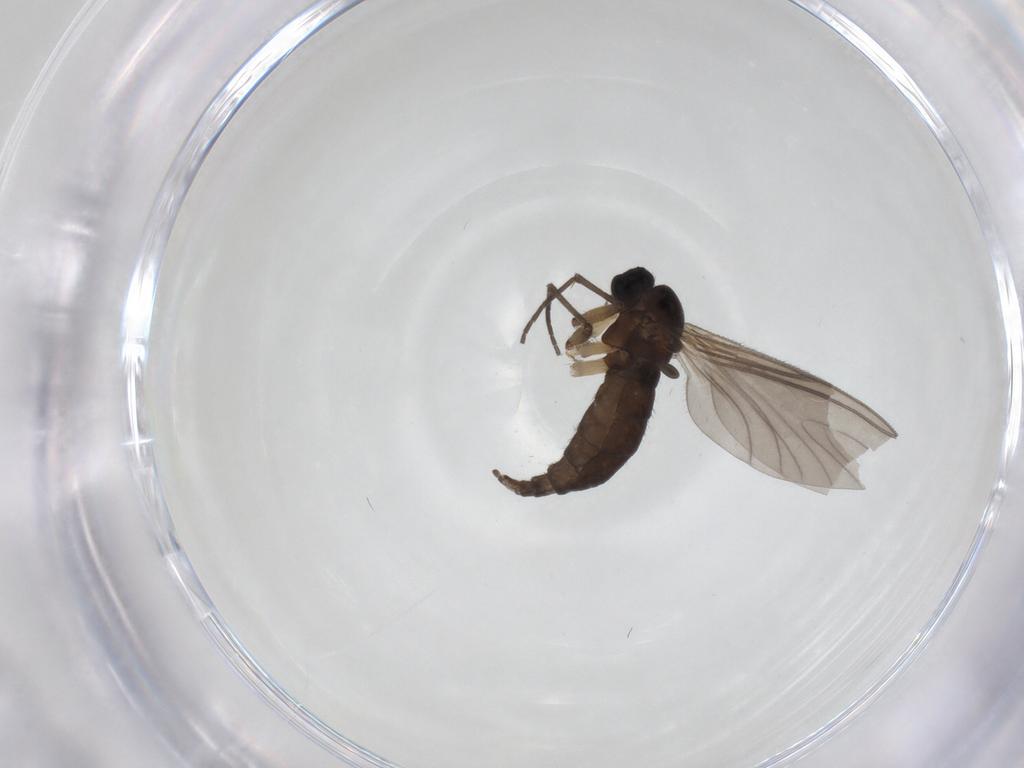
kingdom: Animalia
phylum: Arthropoda
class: Insecta
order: Diptera
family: Sciaridae
